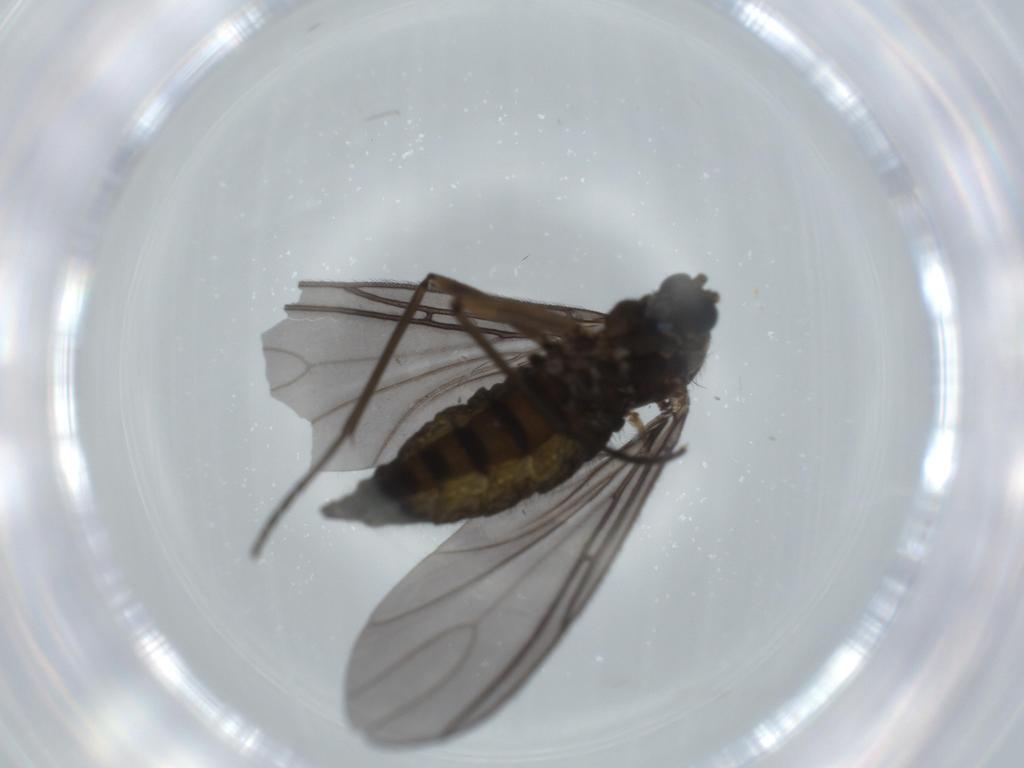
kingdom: Animalia
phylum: Arthropoda
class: Insecta
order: Diptera
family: Sciaridae
